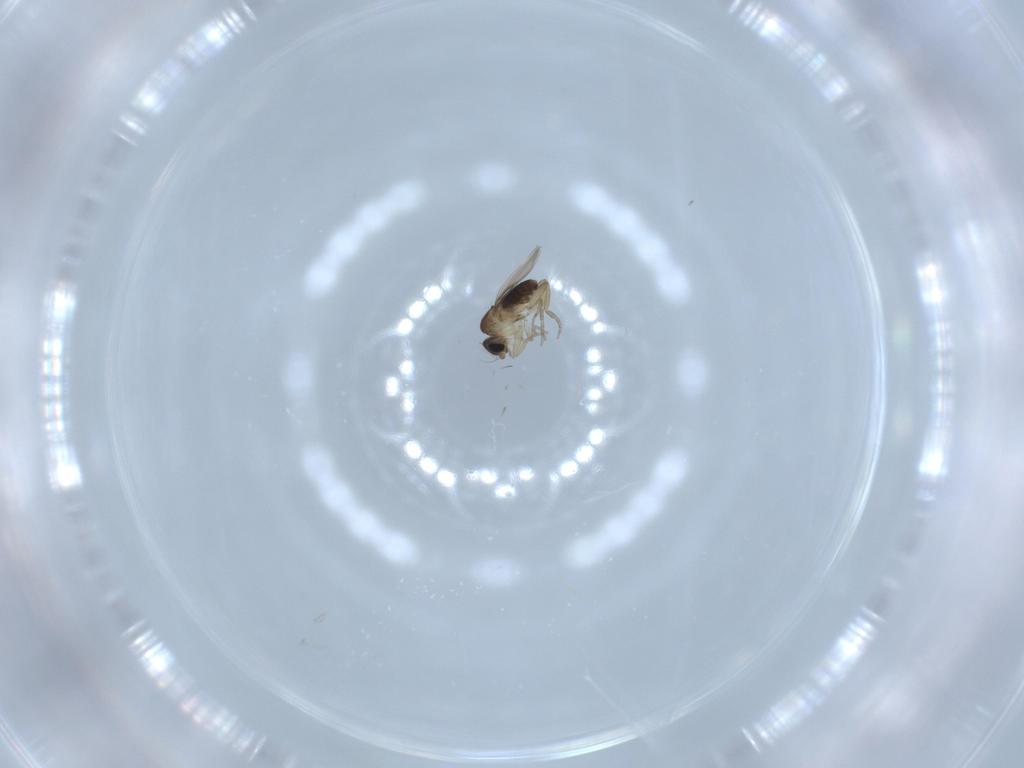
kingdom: Animalia
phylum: Arthropoda
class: Insecta
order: Diptera
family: Phoridae
